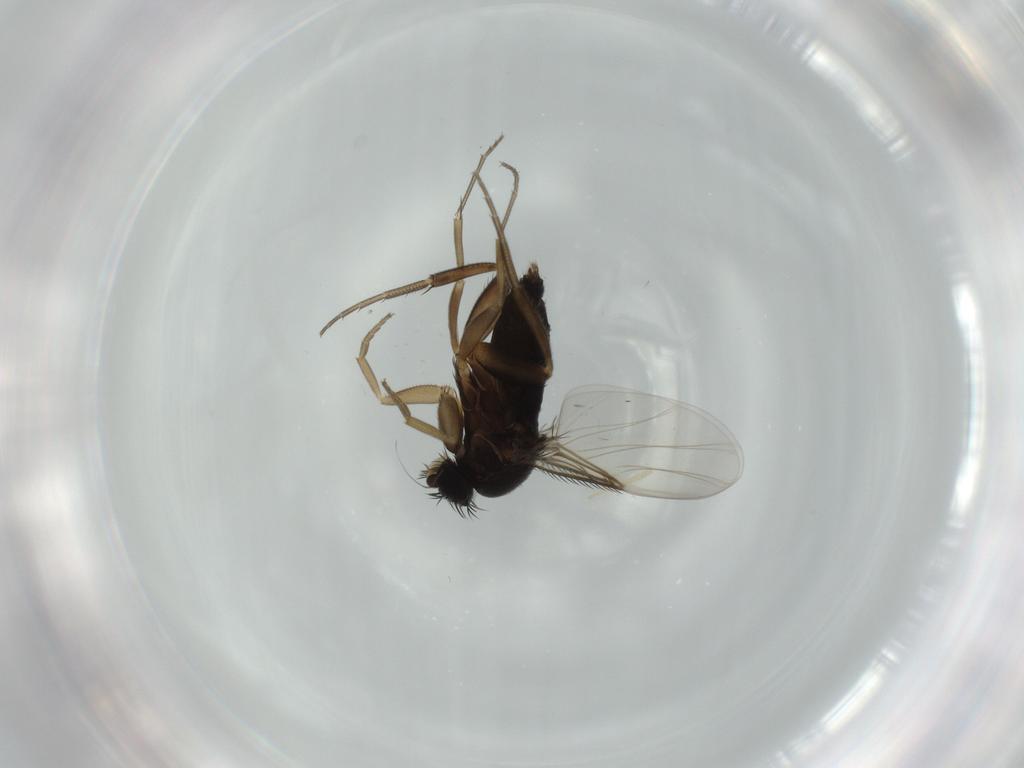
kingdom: Animalia
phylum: Arthropoda
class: Insecta
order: Diptera
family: Phoridae
